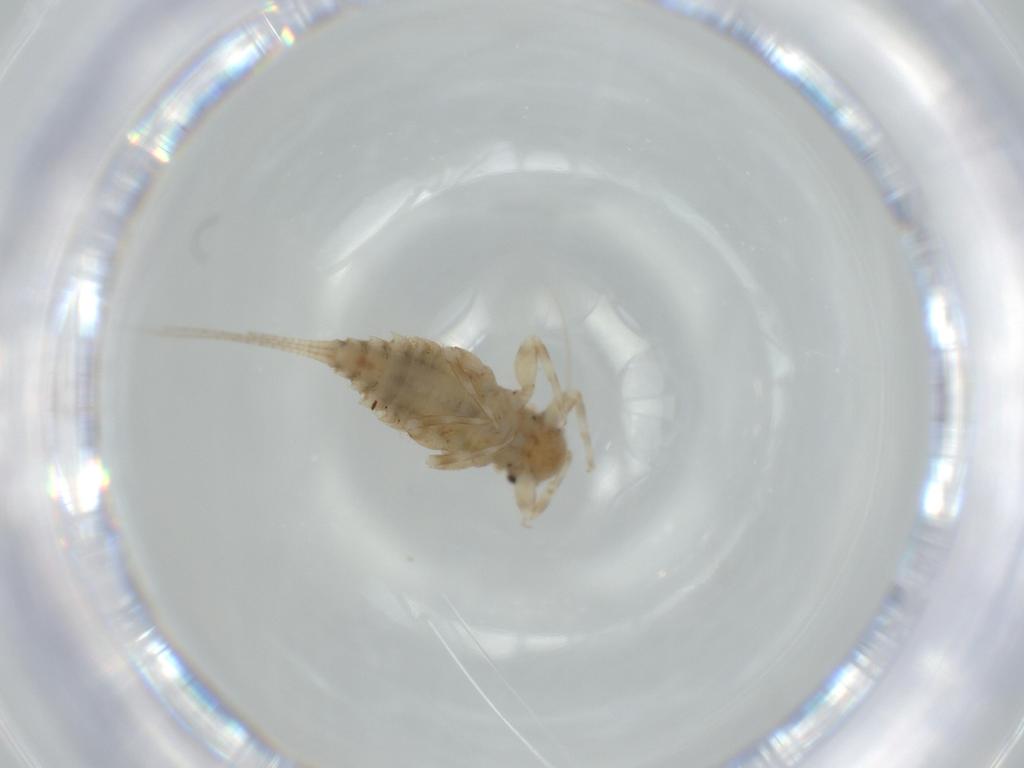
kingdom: Animalia
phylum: Arthropoda
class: Insecta
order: Ephemeroptera
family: Caenidae
